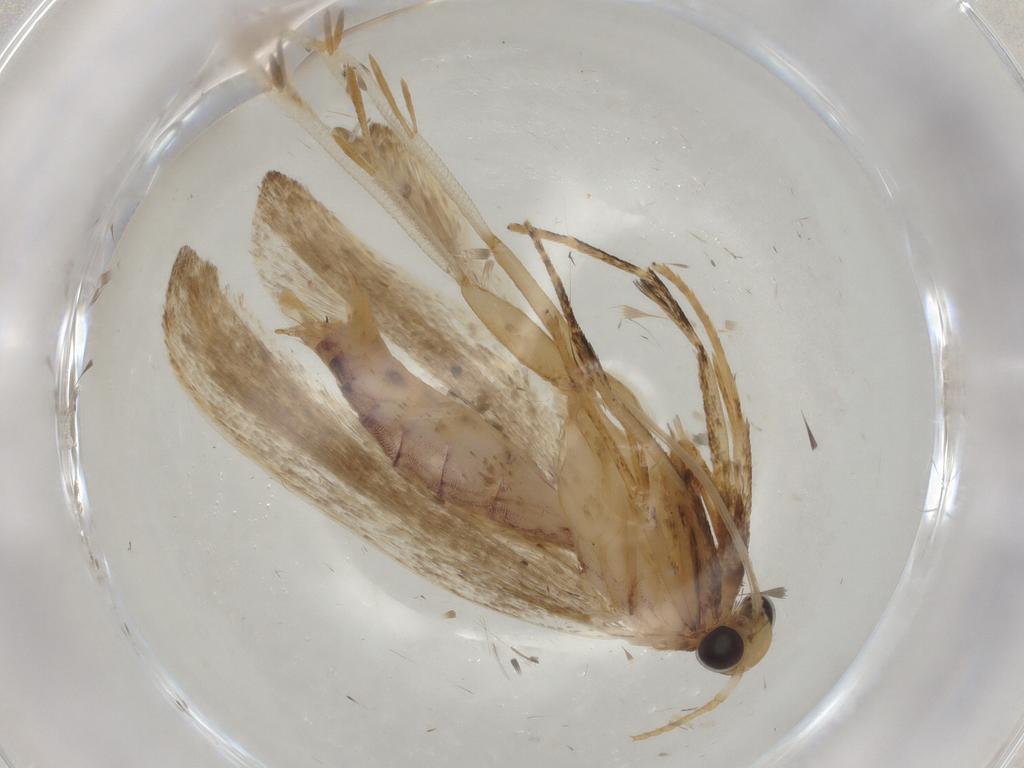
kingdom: Animalia
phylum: Arthropoda
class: Insecta
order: Lepidoptera
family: Gelechiidae
